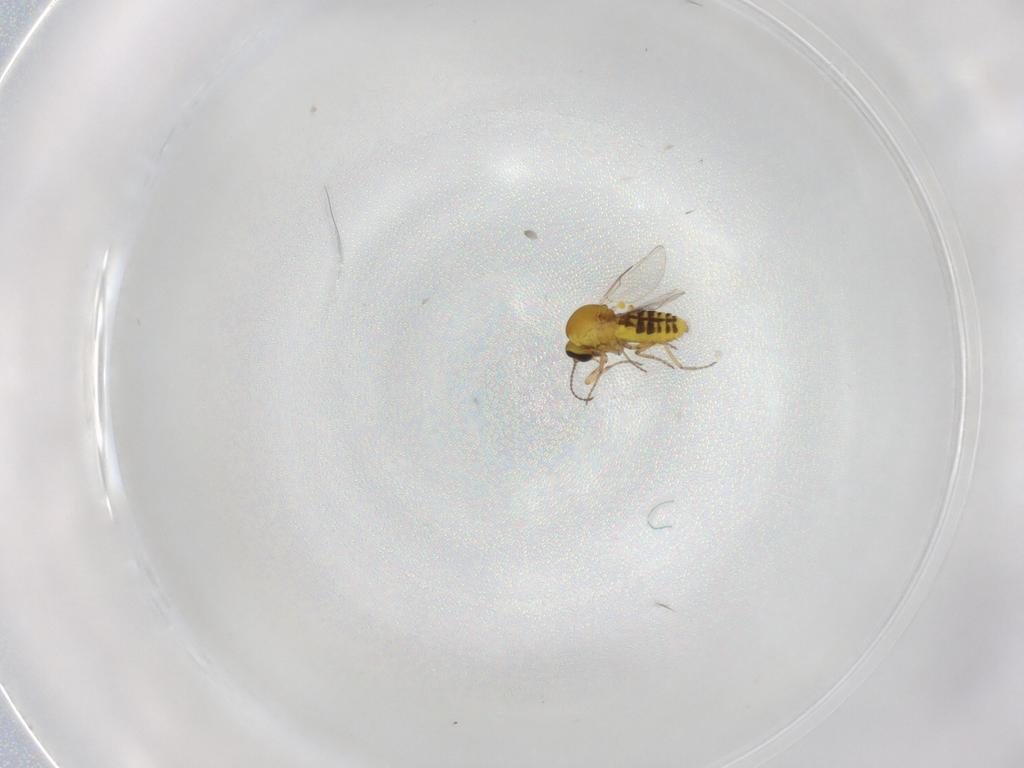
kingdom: Animalia
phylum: Arthropoda
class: Insecta
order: Diptera
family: Ceratopogonidae
